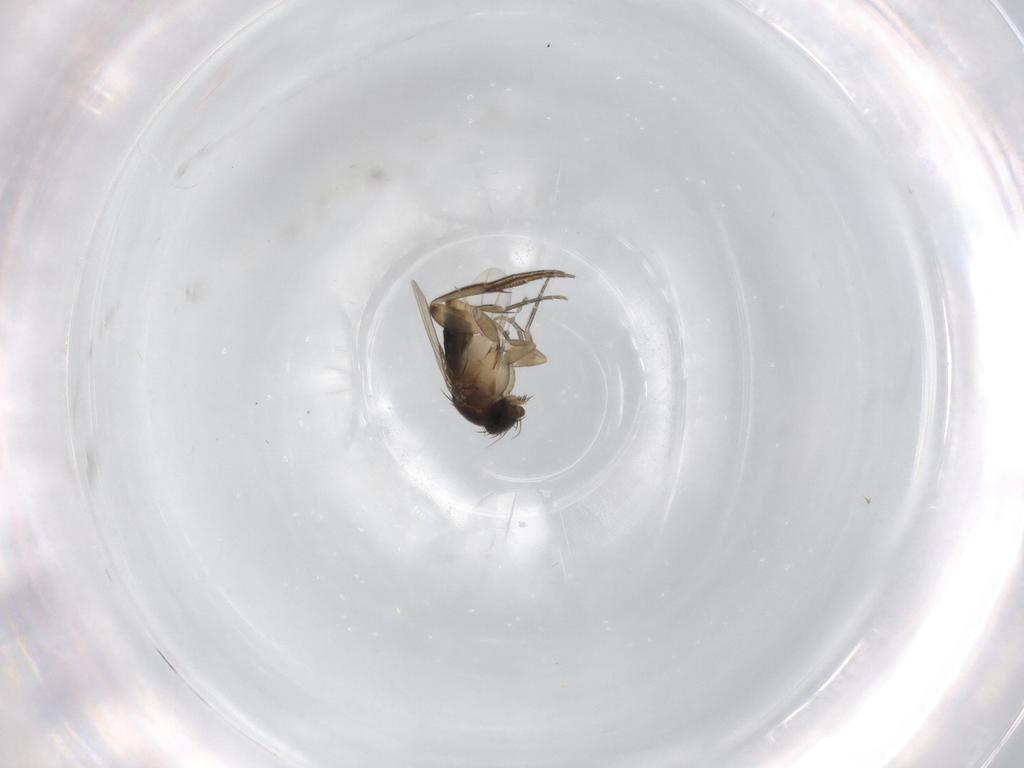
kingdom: Animalia
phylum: Arthropoda
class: Insecta
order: Diptera
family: Phoridae
